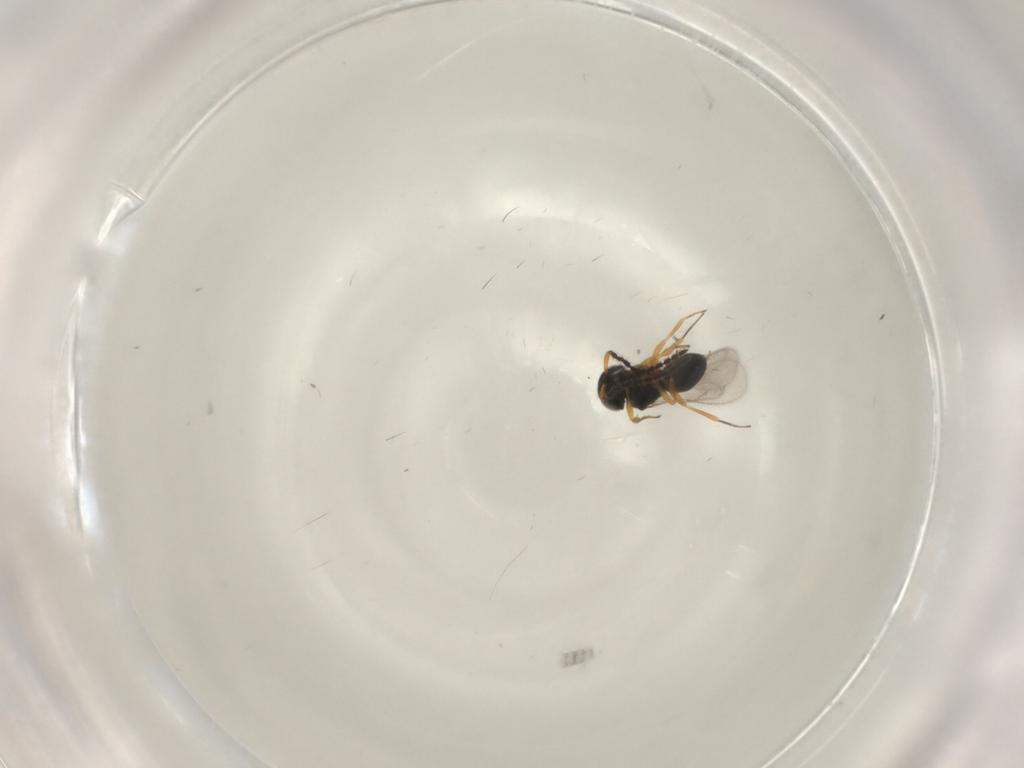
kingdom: Animalia
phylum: Arthropoda
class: Insecta
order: Hymenoptera
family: Formicidae
